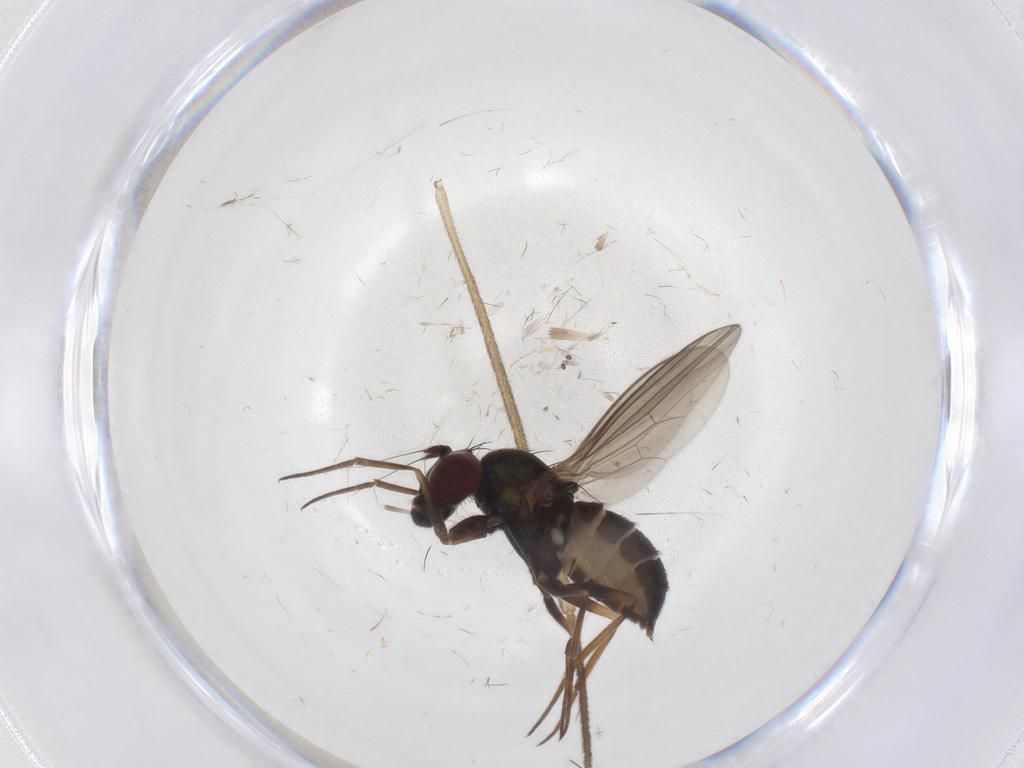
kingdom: Animalia
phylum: Arthropoda
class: Insecta
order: Diptera
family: Dolichopodidae
